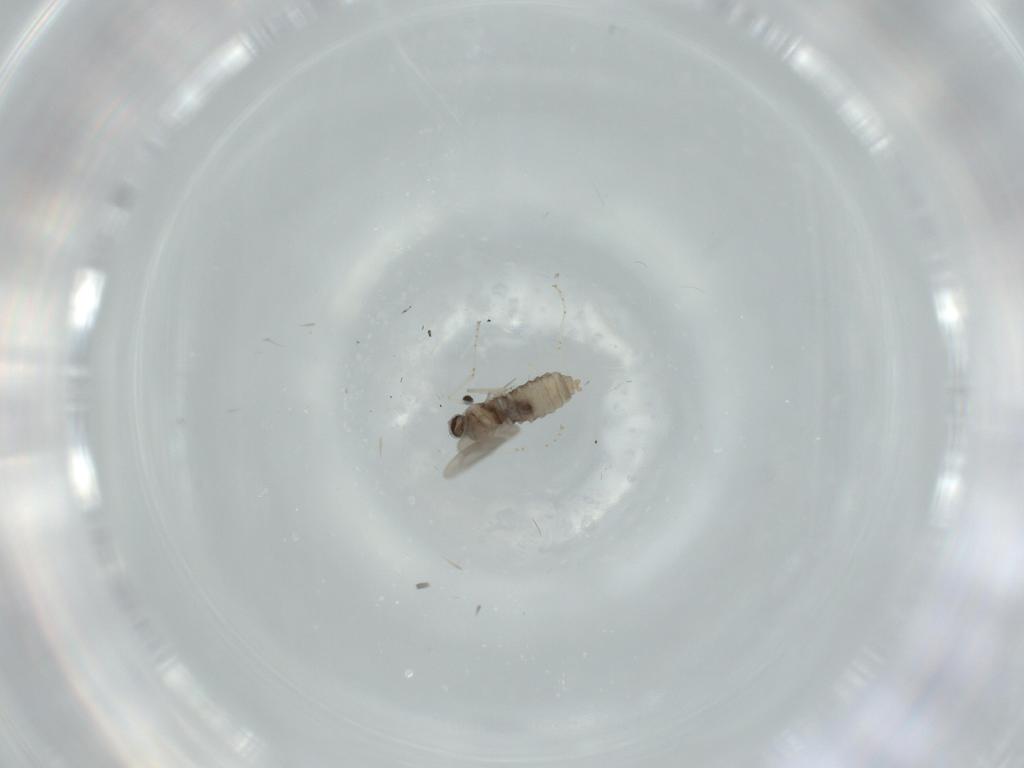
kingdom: Animalia
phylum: Arthropoda
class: Insecta
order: Diptera
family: Cecidomyiidae
